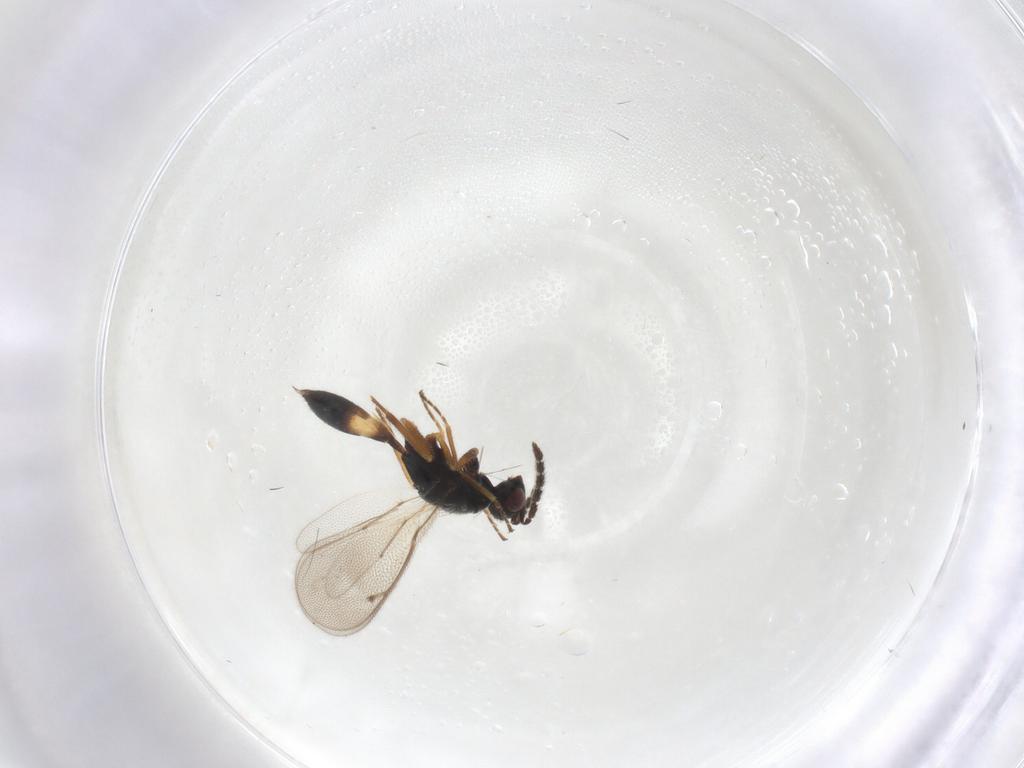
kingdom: Animalia
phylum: Arthropoda
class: Insecta
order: Hymenoptera
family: Eulophidae
